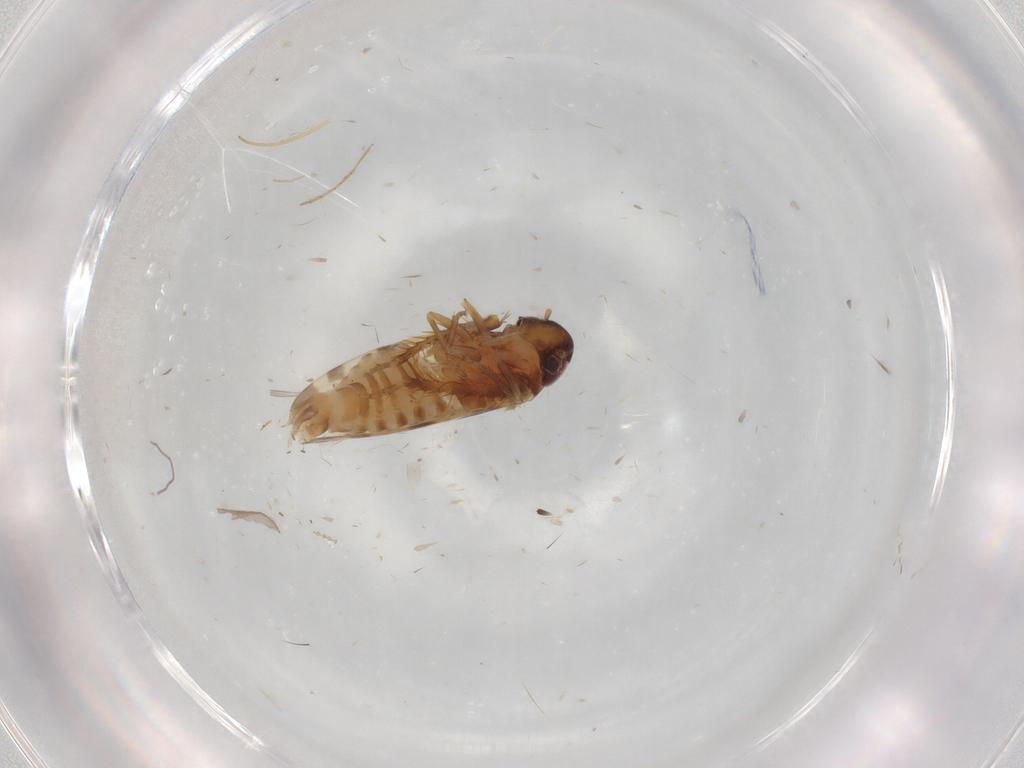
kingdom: Animalia
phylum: Arthropoda
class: Insecta
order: Hemiptera
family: Cicadellidae
